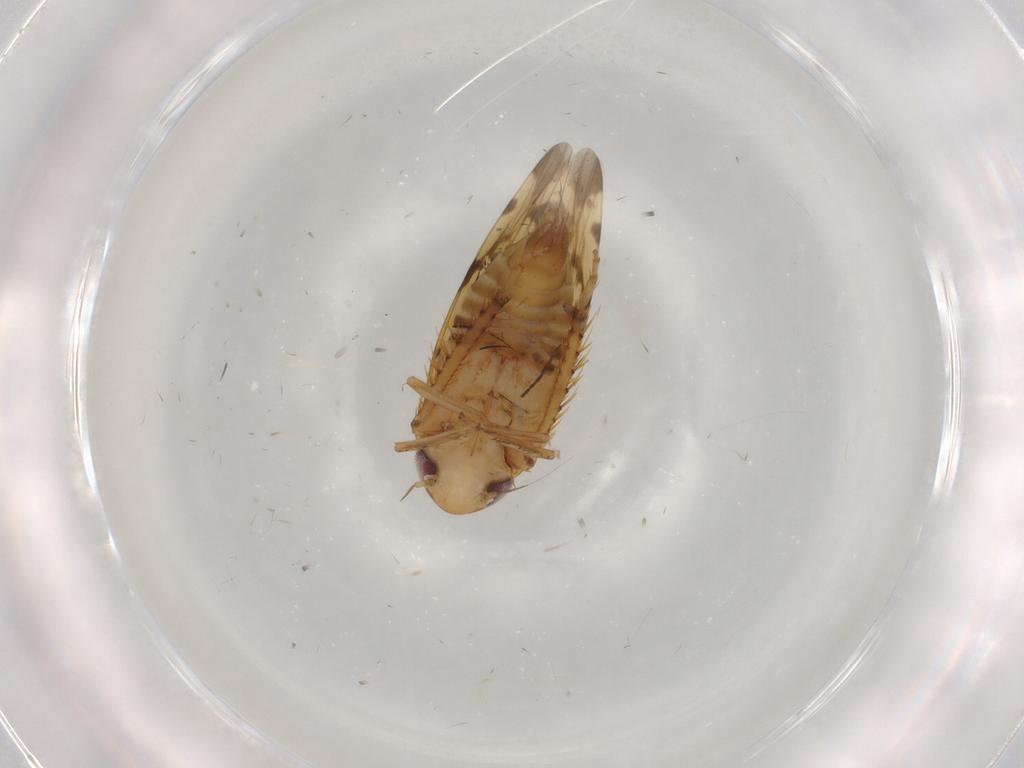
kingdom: Animalia
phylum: Arthropoda
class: Insecta
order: Hemiptera
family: Cicadellidae
